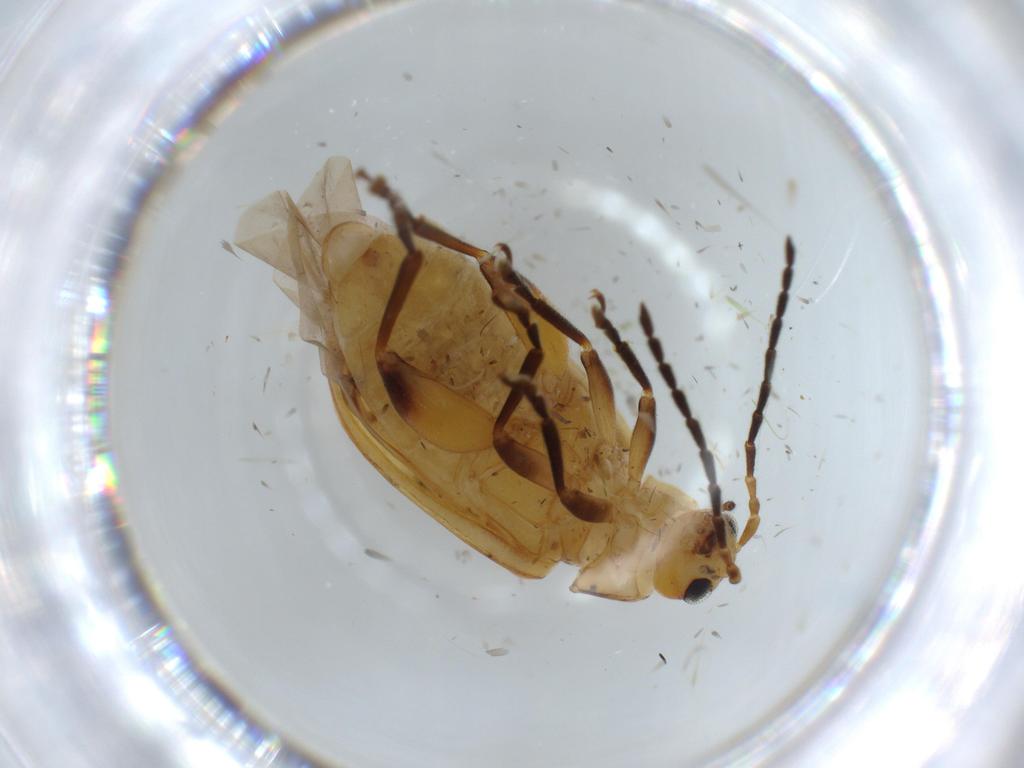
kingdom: Animalia
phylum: Arthropoda
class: Insecta
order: Coleoptera
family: Chrysomelidae
